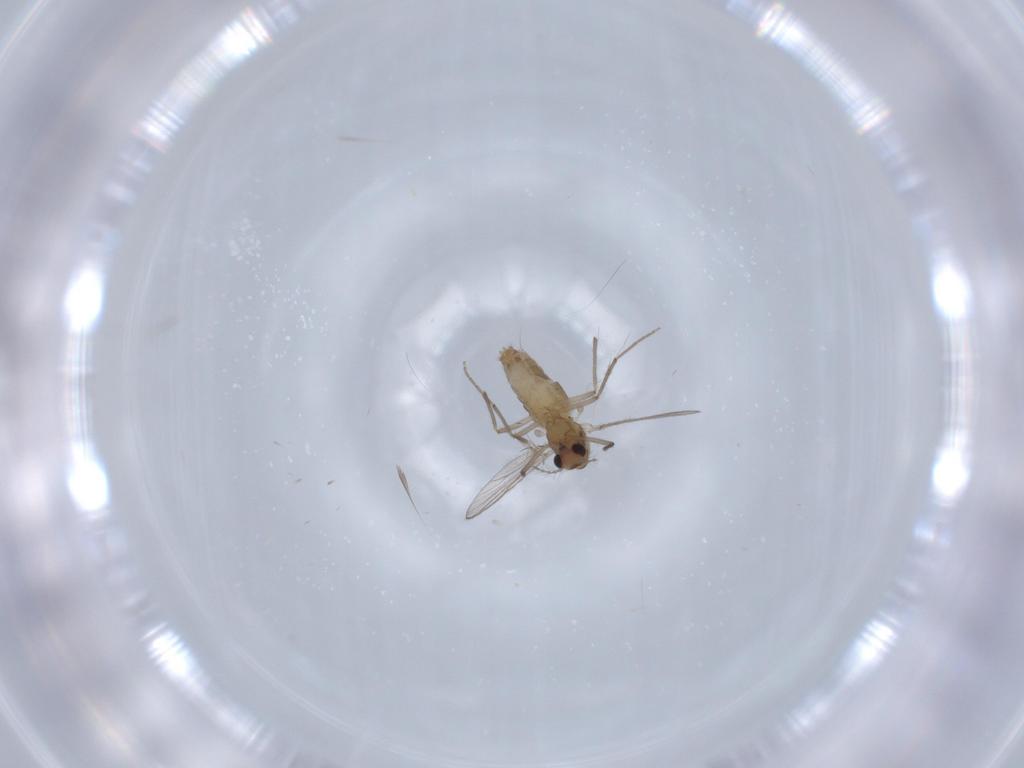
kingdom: Animalia
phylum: Arthropoda
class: Insecta
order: Diptera
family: Chironomidae
